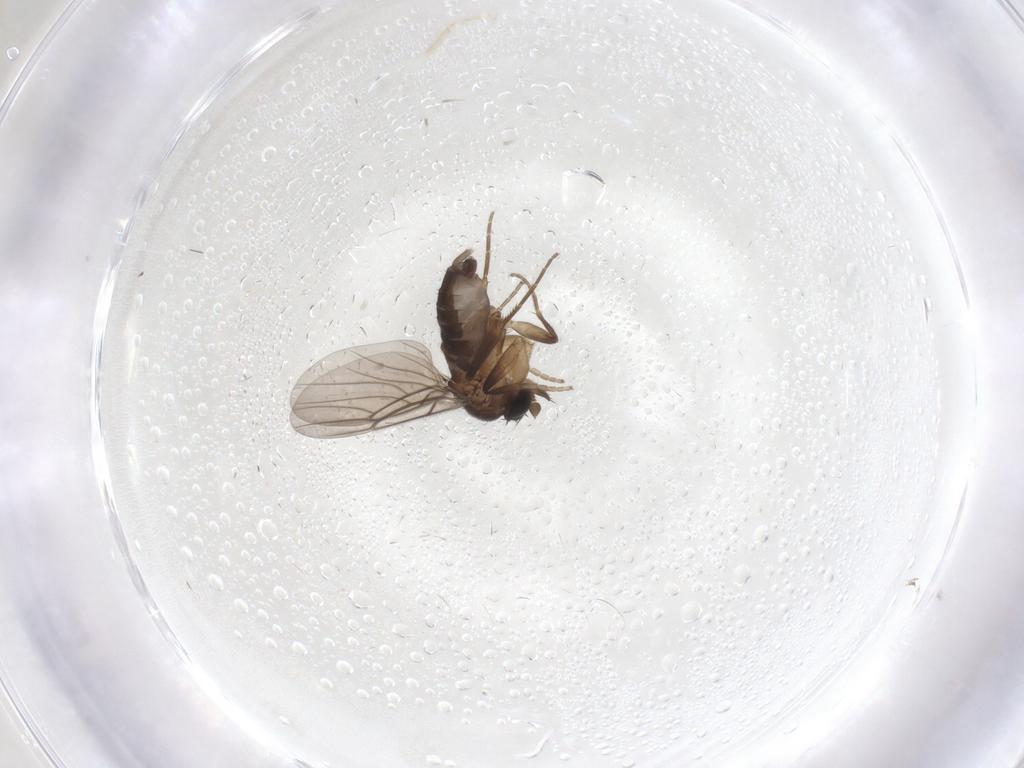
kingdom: Animalia
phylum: Arthropoda
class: Insecta
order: Diptera
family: Phoridae
